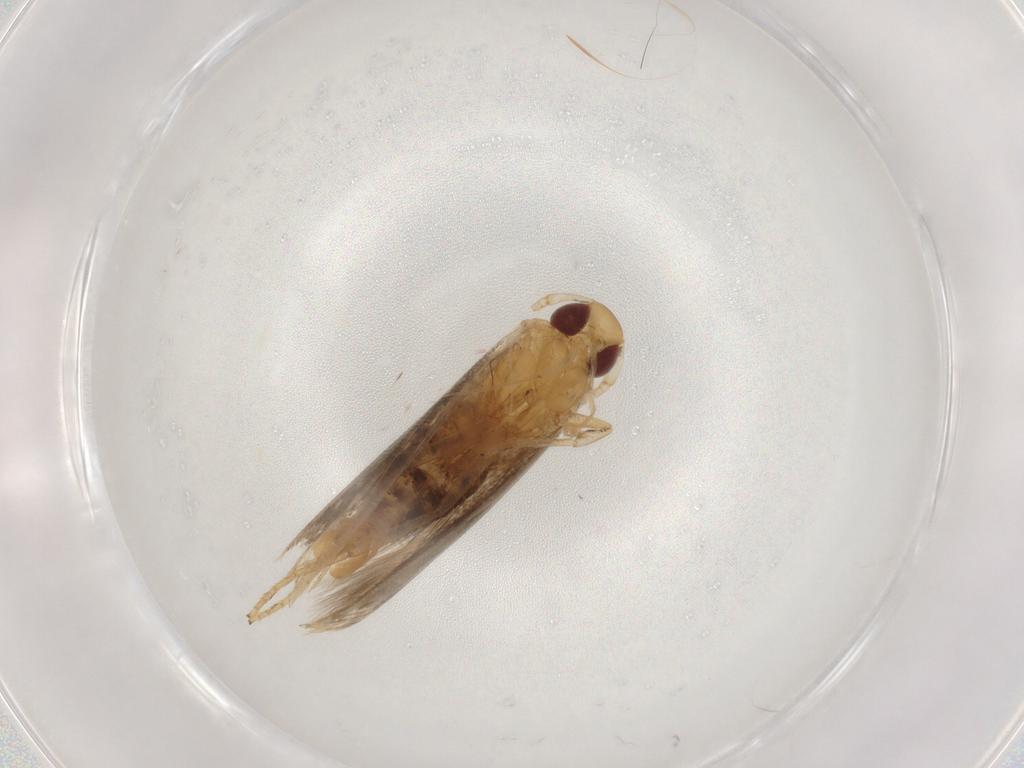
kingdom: Animalia
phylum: Arthropoda
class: Insecta
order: Lepidoptera
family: Cosmopterigidae
